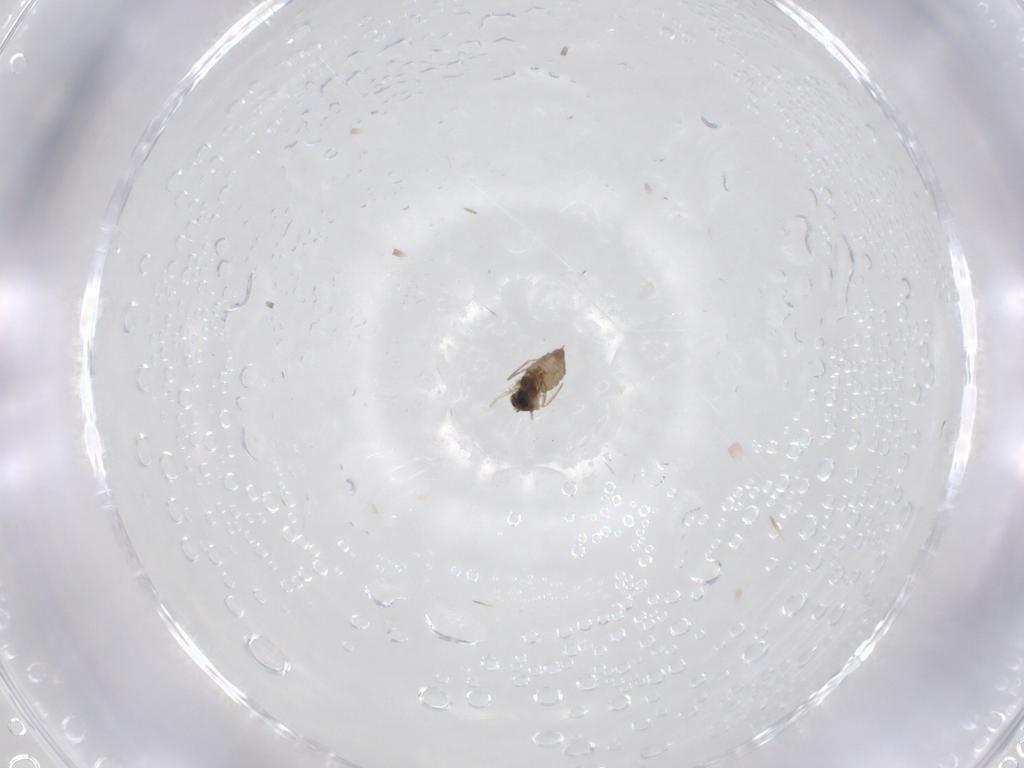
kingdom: Animalia
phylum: Arthropoda
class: Insecta
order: Diptera
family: Cecidomyiidae
